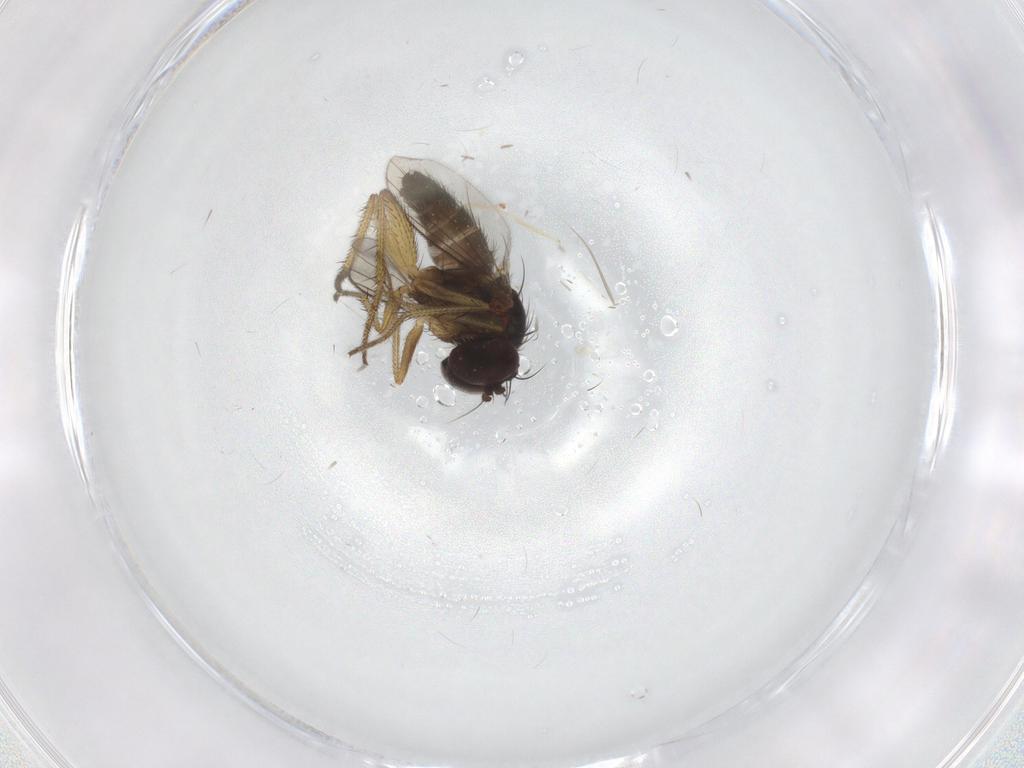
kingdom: Animalia
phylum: Arthropoda
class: Insecta
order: Diptera
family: Dolichopodidae
